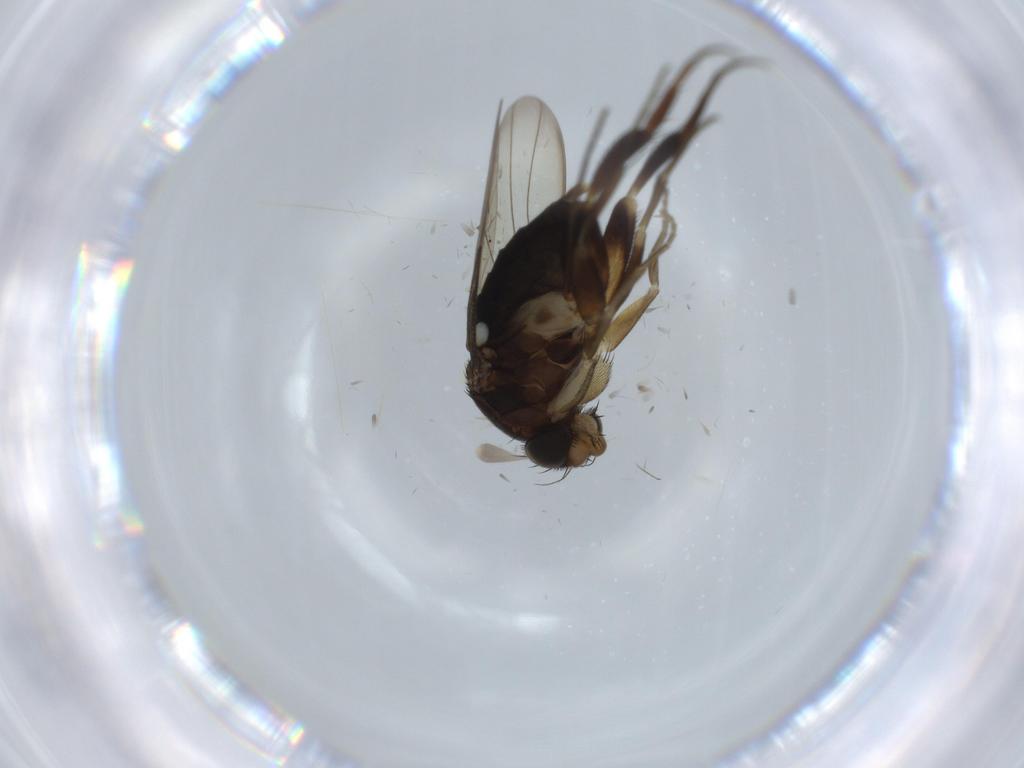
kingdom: Animalia
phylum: Arthropoda
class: Insecta
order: Diptera
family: Phoridae
